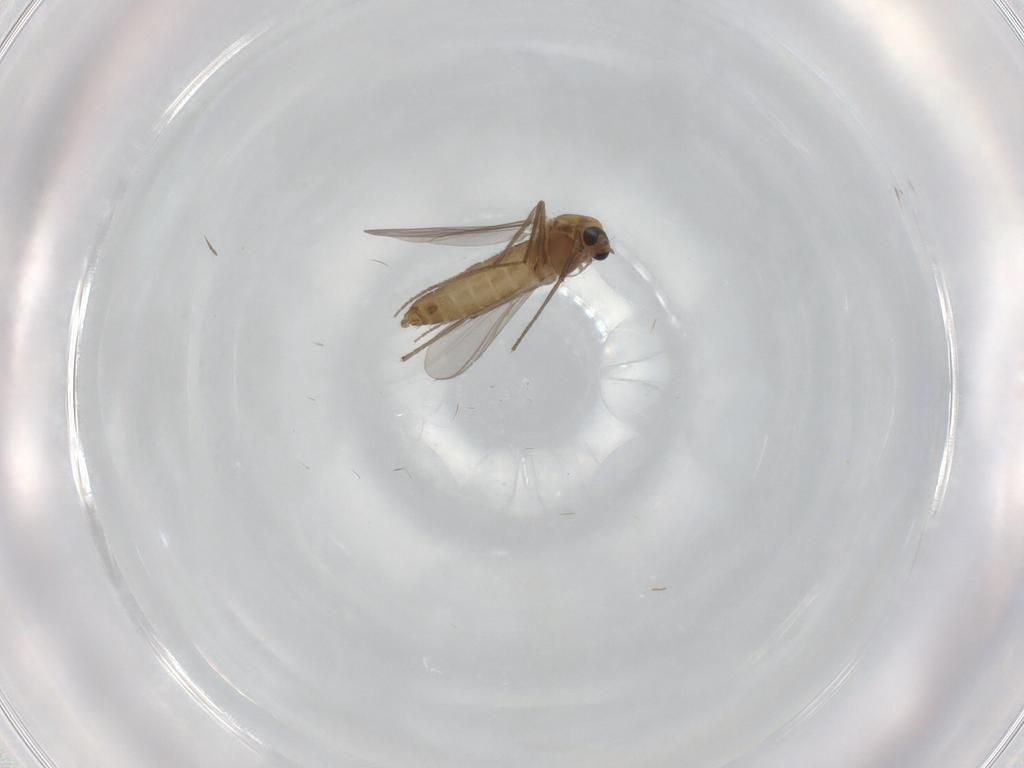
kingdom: Animalia
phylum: Arthropoda
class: Insecta
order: Diptera
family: Chironomidae
